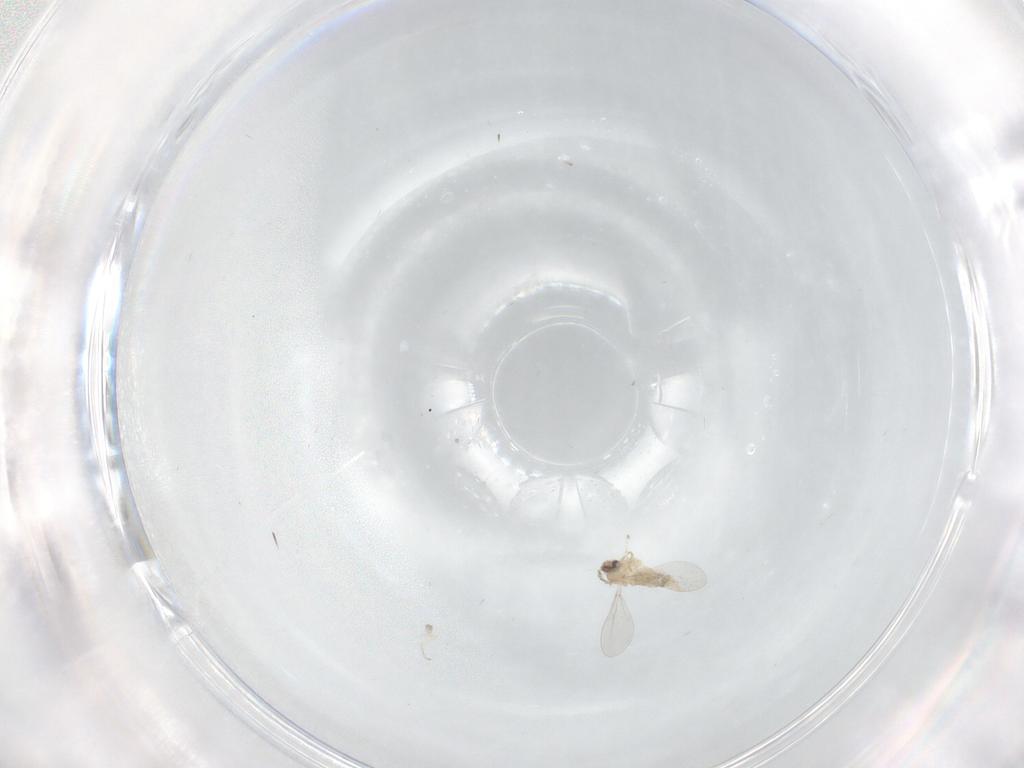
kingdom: Animalia
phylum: Arthropoda
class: Insecta
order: Diptera
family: Cecidomyiidae
